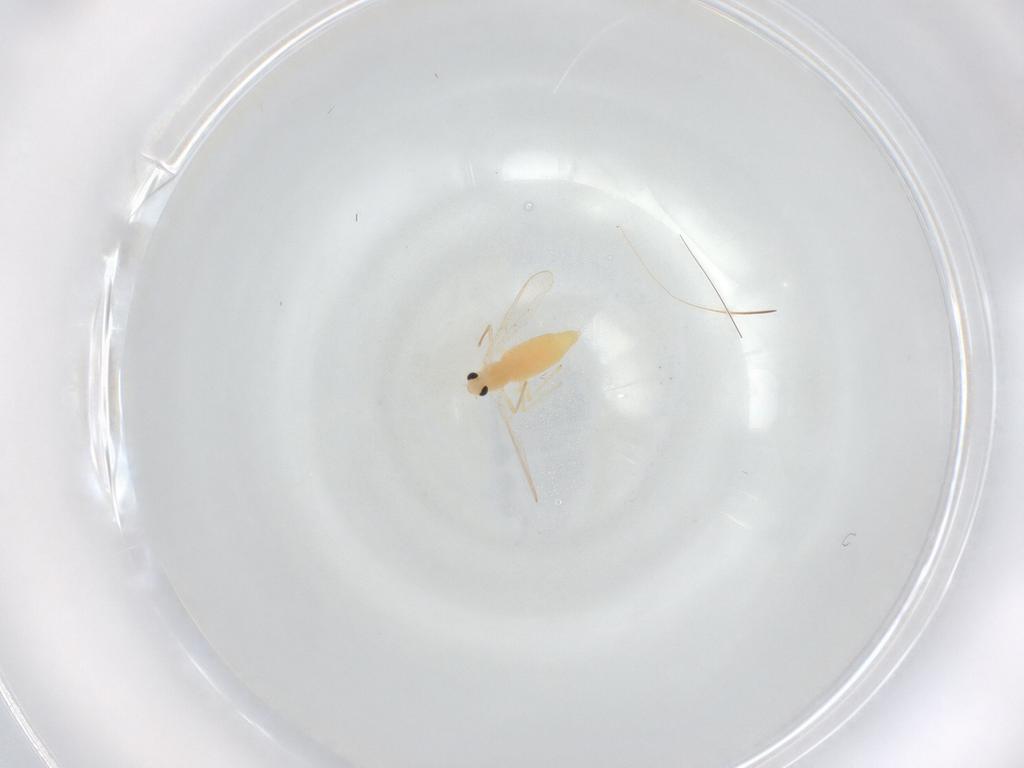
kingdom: Animalia
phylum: Arthropoda
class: Insecta
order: Diptera
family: Chironomidae
